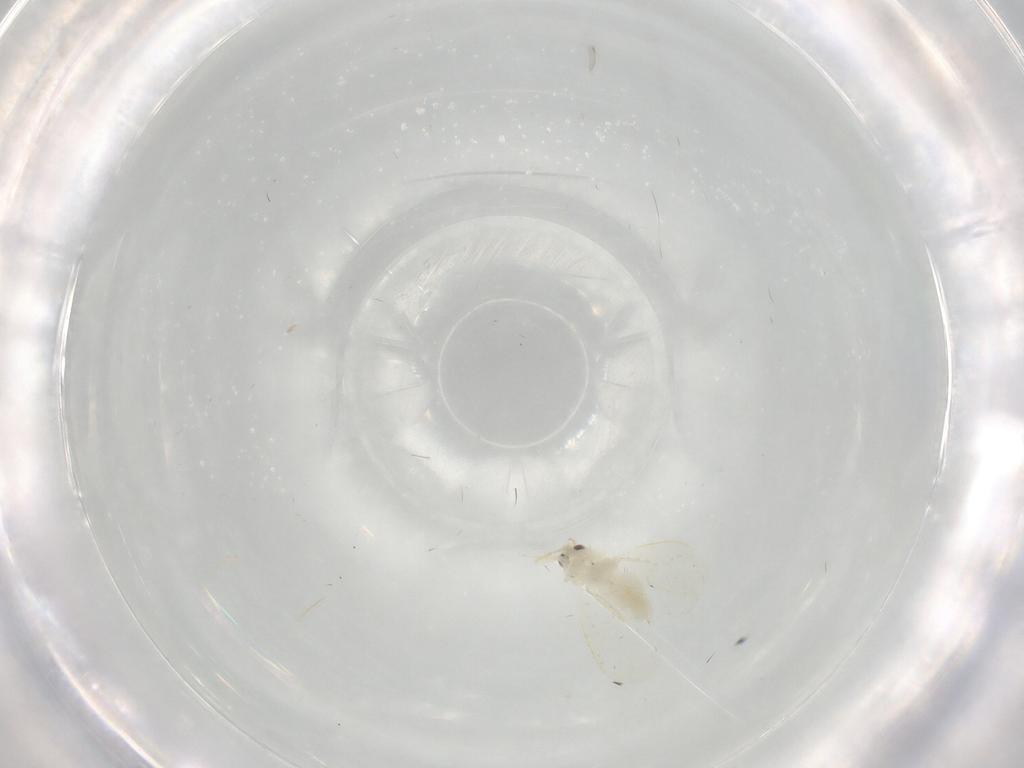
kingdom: Animalia
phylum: Arthropoda
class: Insecta
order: Hemiptera
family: Aleyrodidae
